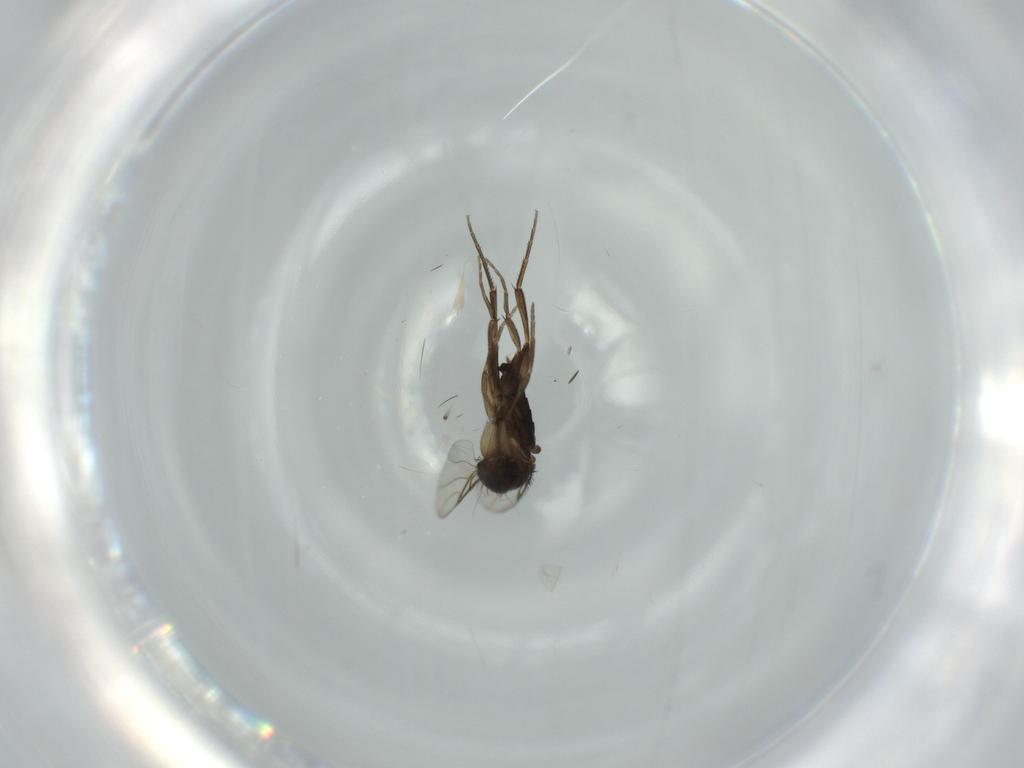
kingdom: Animalia
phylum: Arthropoda
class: Insecta
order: Diptera
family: Phoridae
